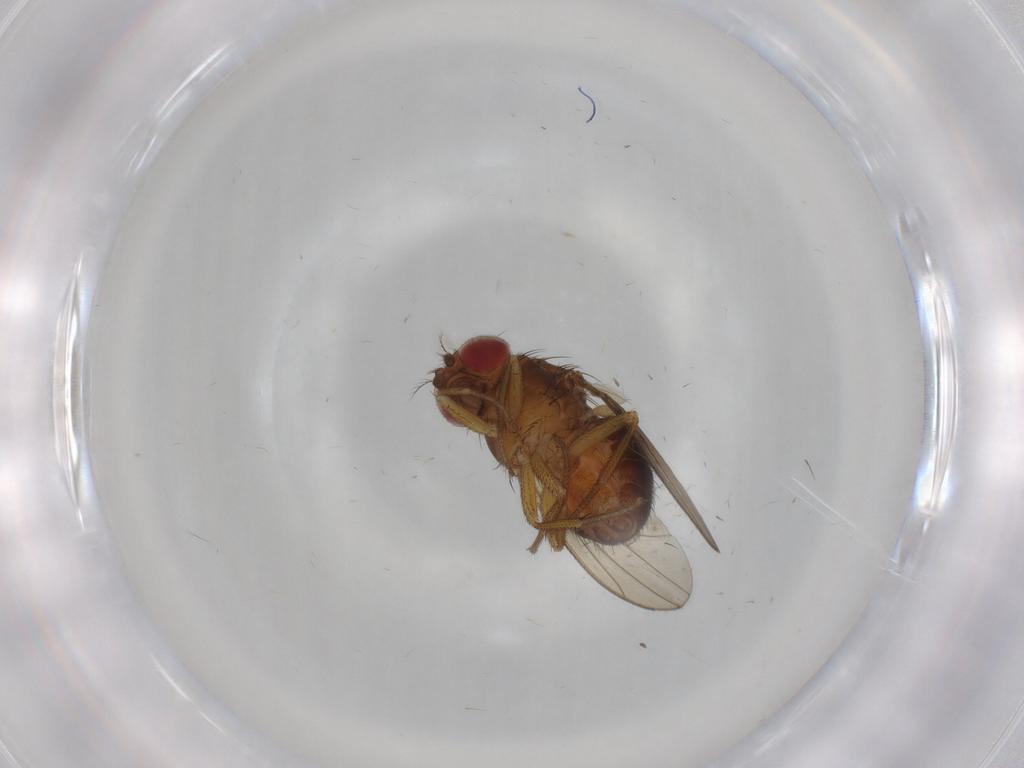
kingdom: Animalia
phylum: Arthropoda
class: Insecta
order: Diptera
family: Drosophilidae
